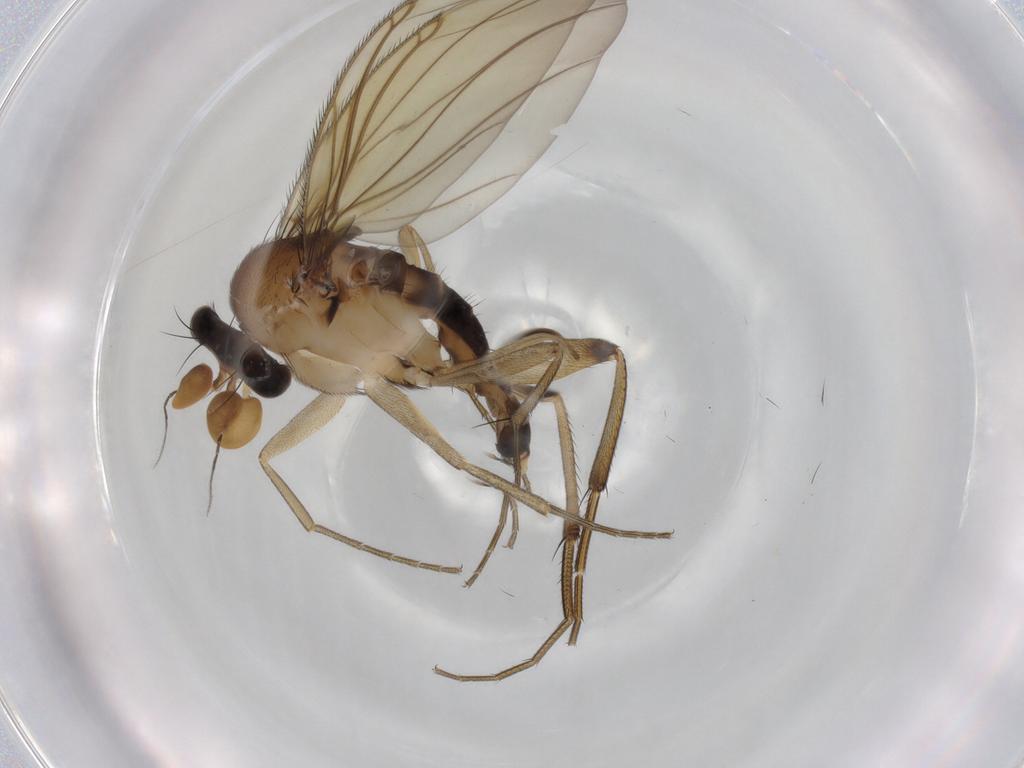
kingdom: Animalia
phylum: Arthropoda
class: Insecta
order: Diptera
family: Phoridae
